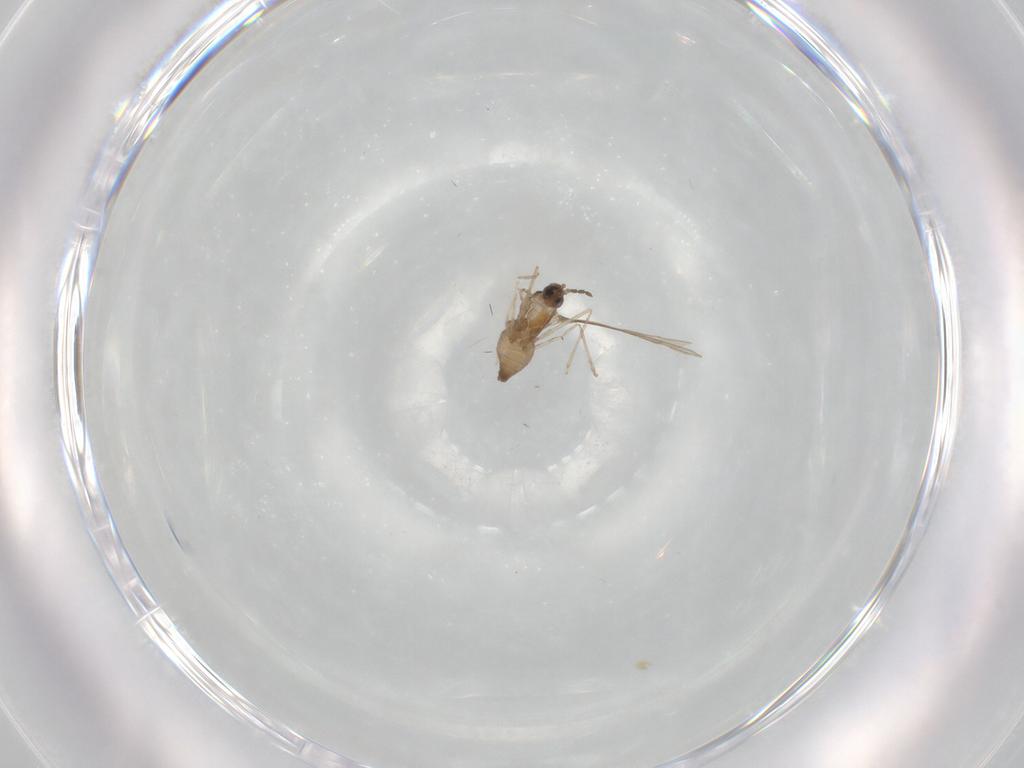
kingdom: Animalia
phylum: Arthropoda
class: Insecta
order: Diptera
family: Cecidomyiidae
